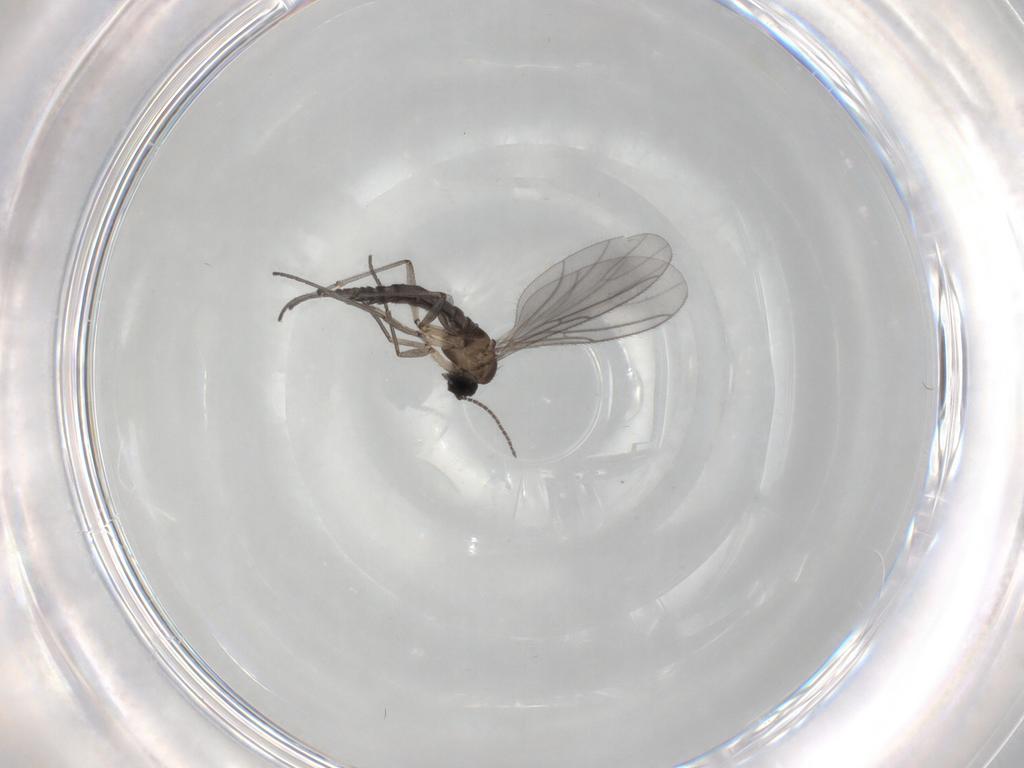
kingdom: Animalia
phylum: Arthropoda
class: Insecta
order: Diptera
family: Sciaridae
